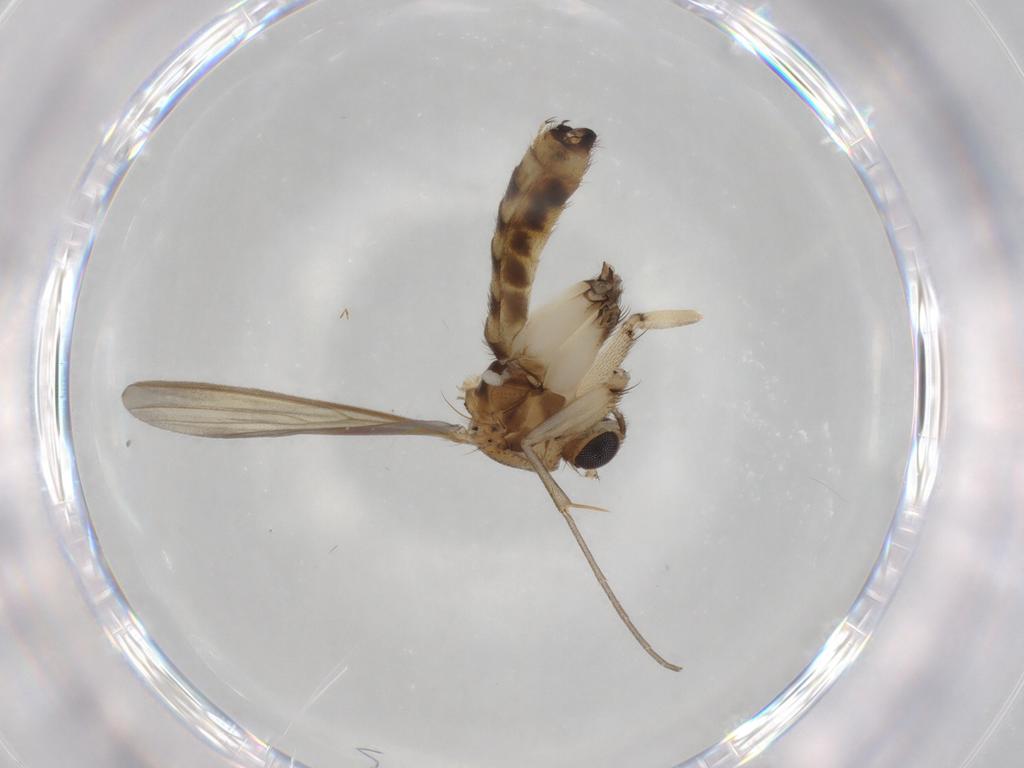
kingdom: Animalia
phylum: Arthropoda
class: Insecta
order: Diptera
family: Mycetophilidae
